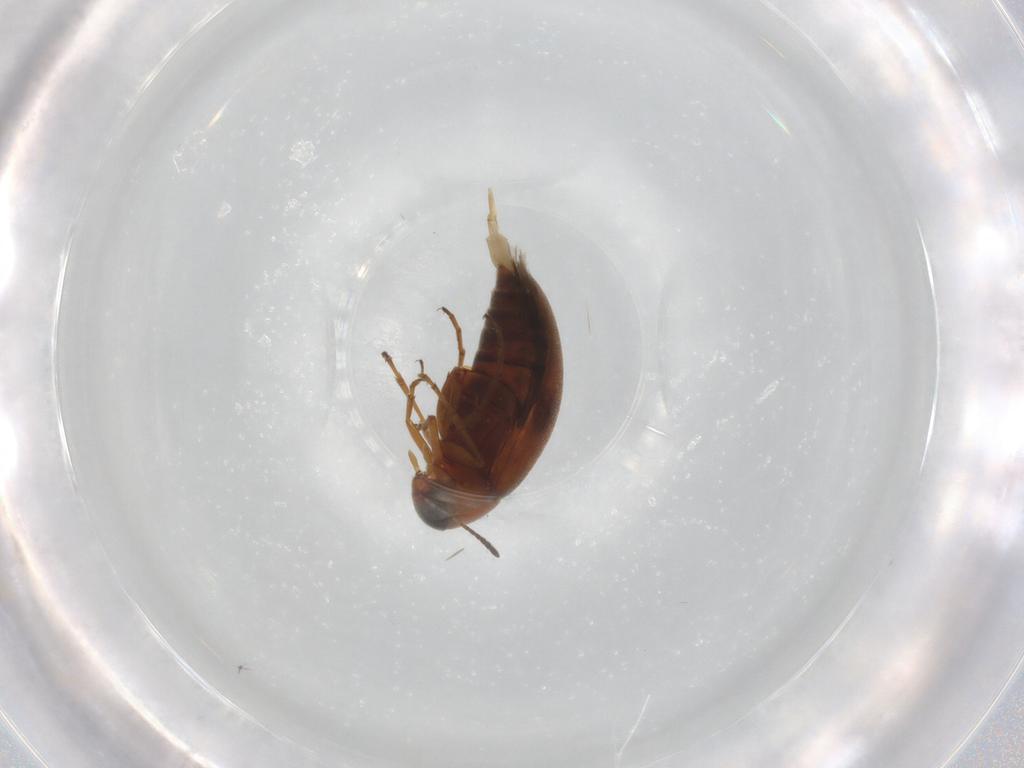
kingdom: Animalia
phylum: Arthropoda
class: Insecta
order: Coleoptera
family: Scraptiidae
